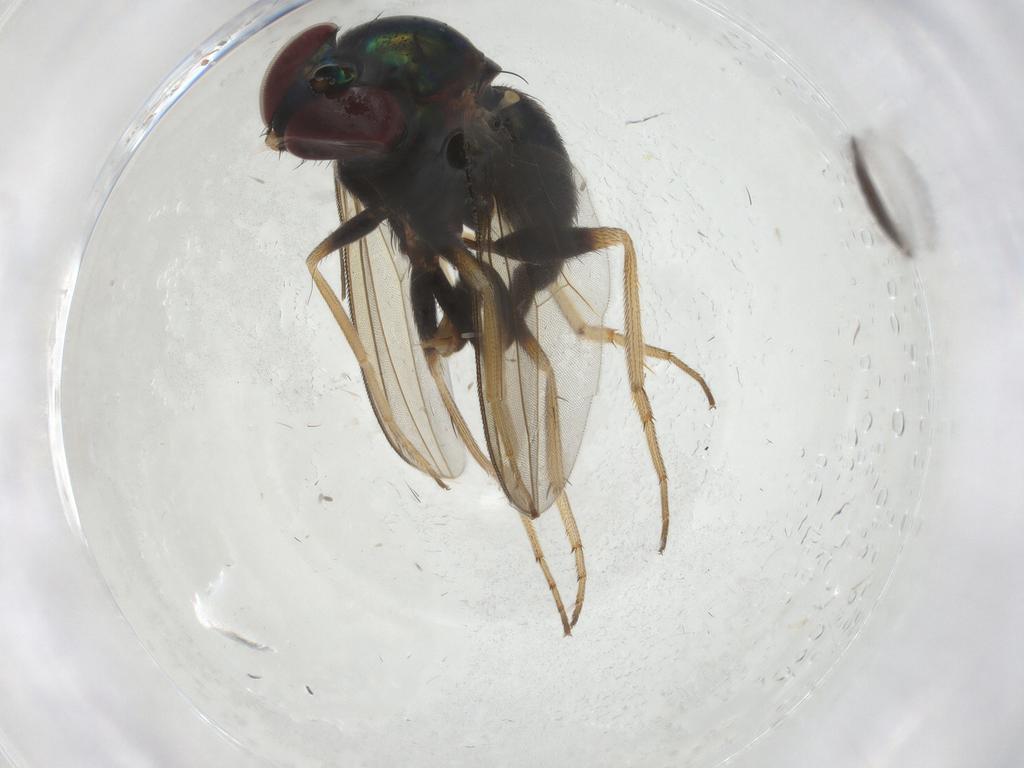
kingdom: Animalia
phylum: Arthropoda
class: Insecta
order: Diptera
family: Dolichopodidae
